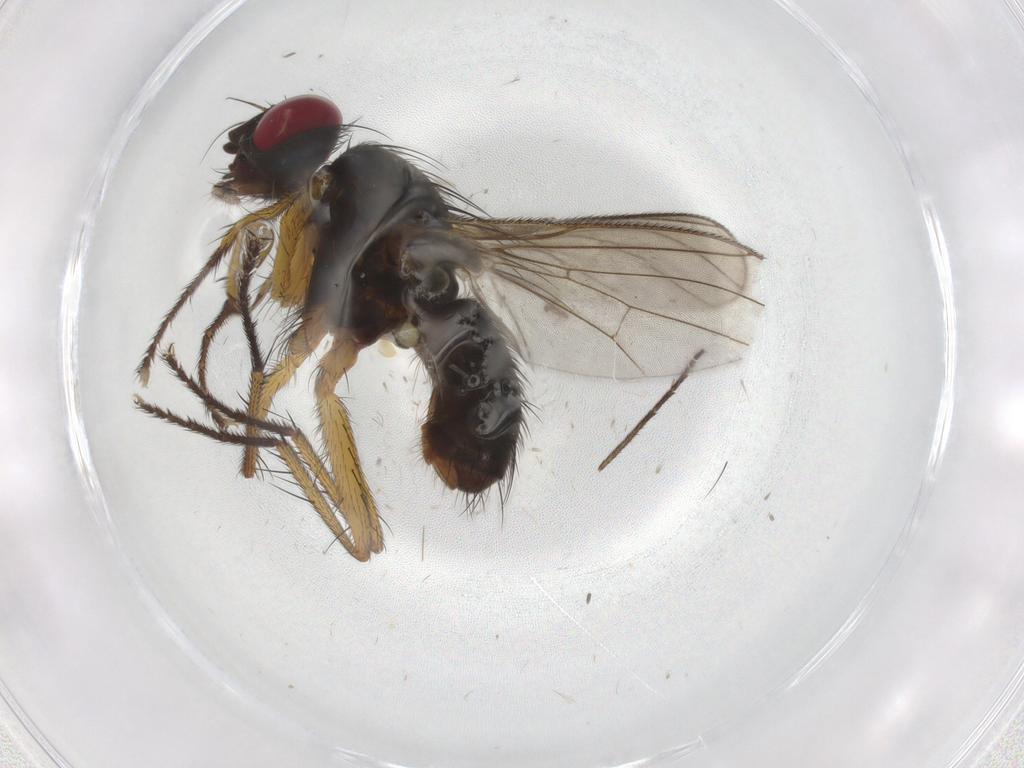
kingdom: Animalia
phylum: Arthropoda
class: Insecta
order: Diptera
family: Muscidae
